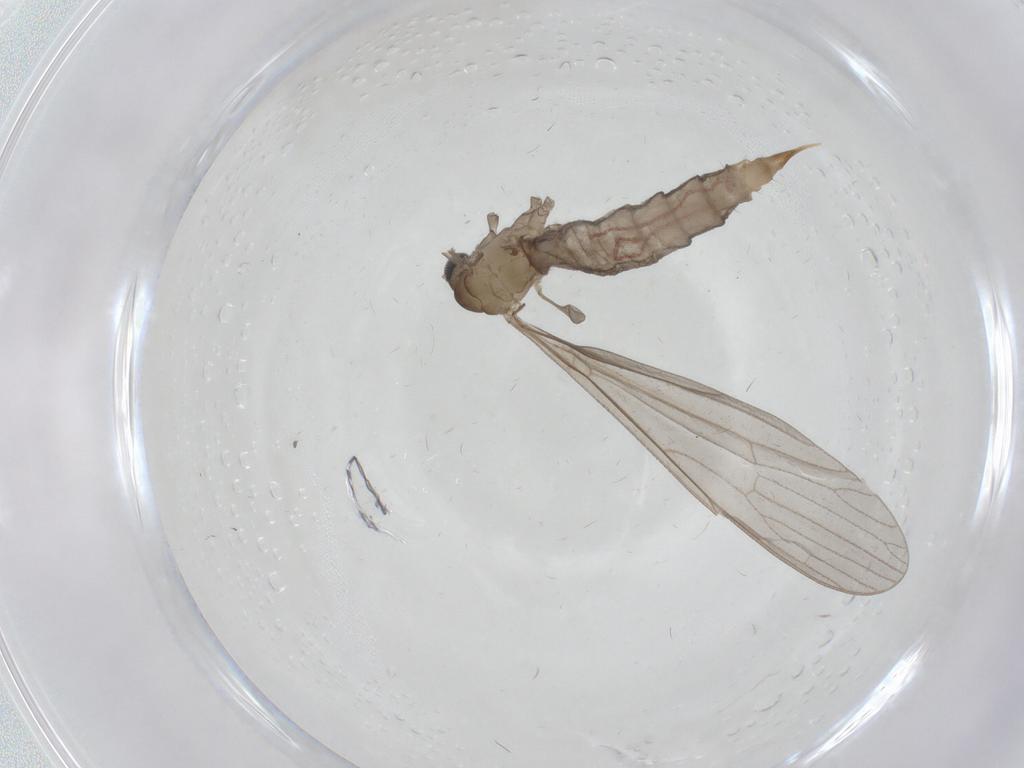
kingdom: Animalia
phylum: Arthropoda
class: Insecta
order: Diptera
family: Limoniidae
